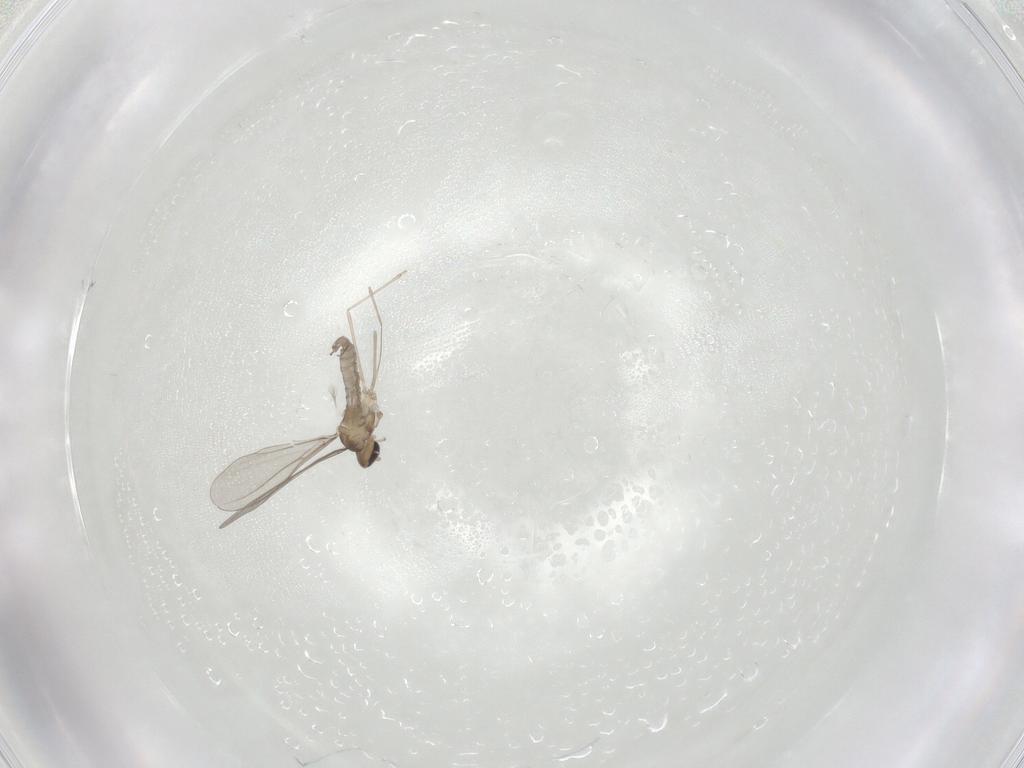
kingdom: Animalia
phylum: Arthropoda
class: Insecta
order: Diptera
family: Cecidomyiidae
